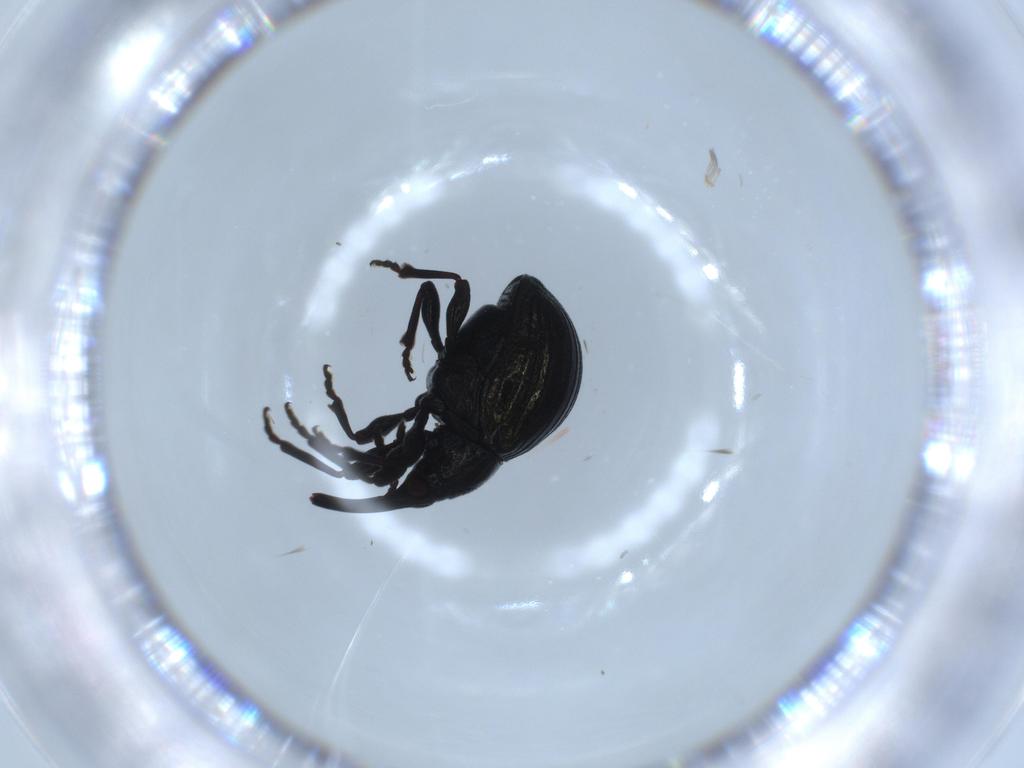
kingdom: Animalia
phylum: Arthropoda
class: Insecta
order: Coleoptera
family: Brentidae
